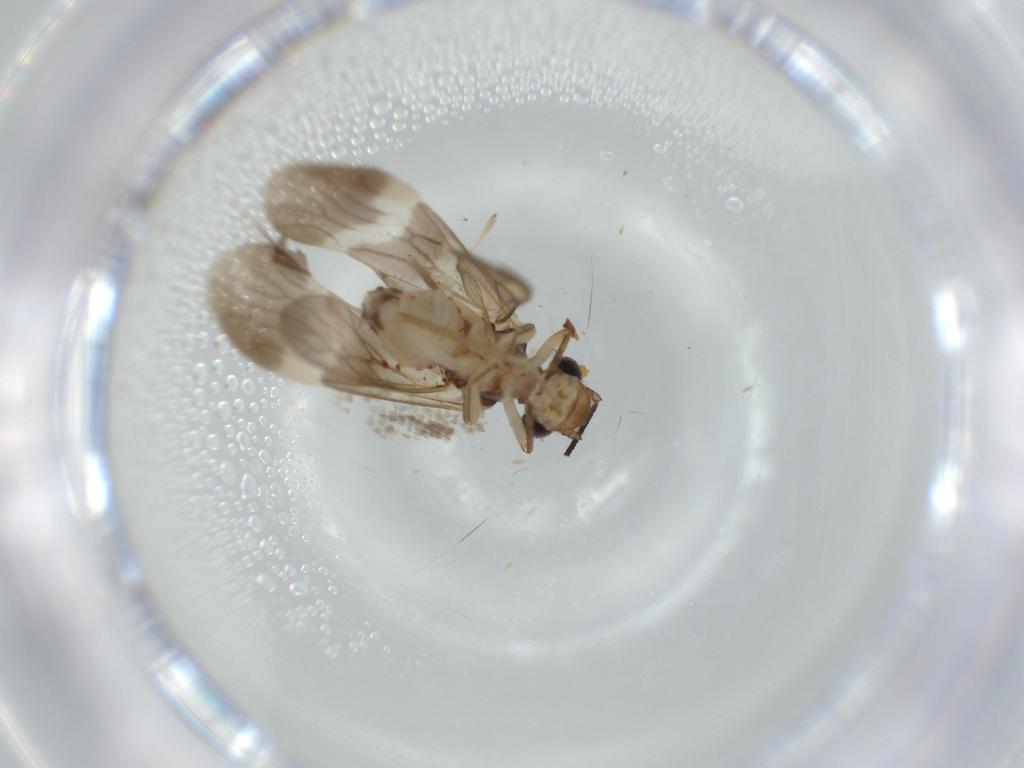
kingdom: Animalia
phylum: Arthropoda
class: Insecta
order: Psocodea
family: Lepidopsocidae
